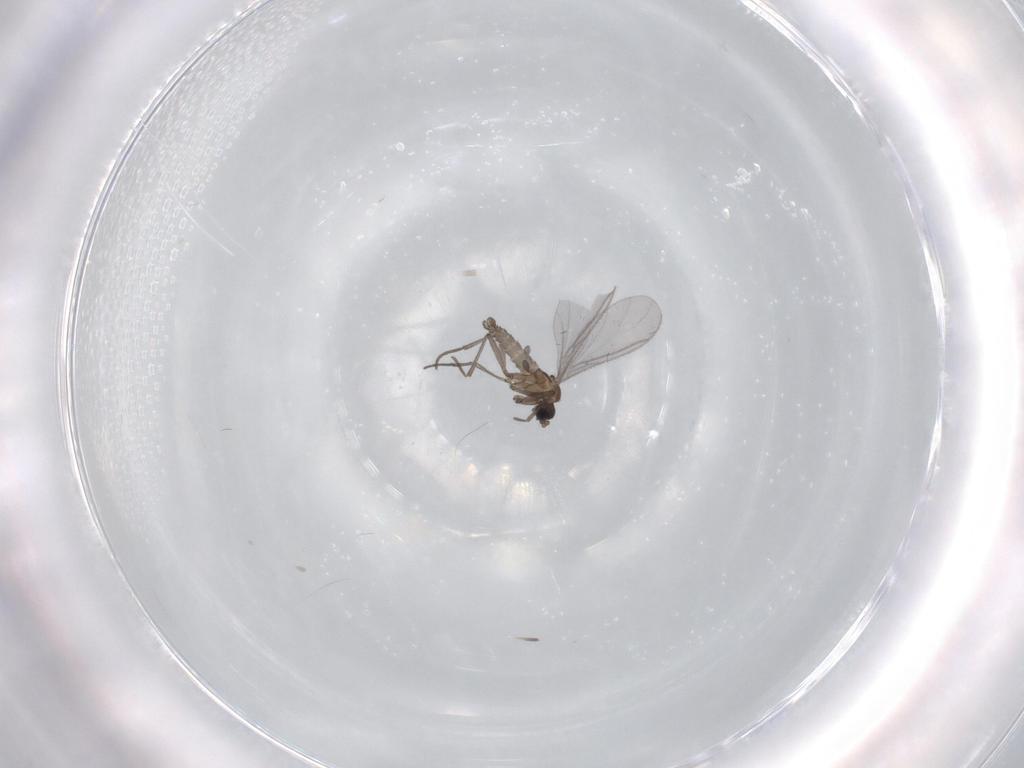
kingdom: Animalia
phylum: Arthropoda
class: Insecta
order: Diptera
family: Sciaridae
